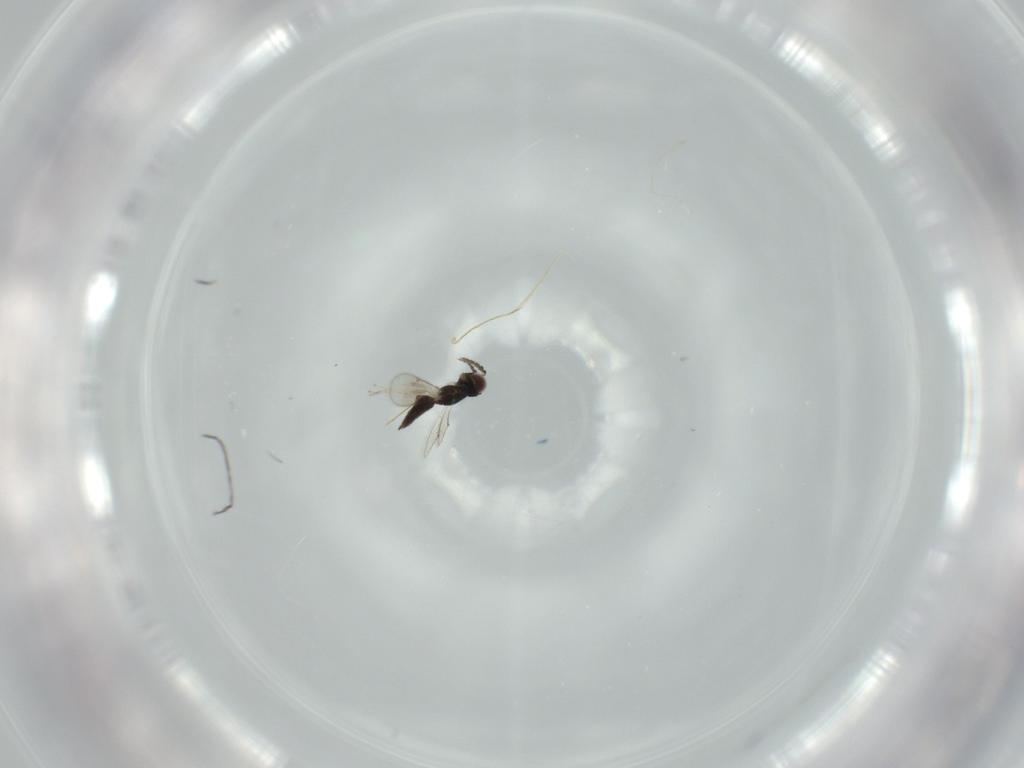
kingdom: Animalia
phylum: Arthropoda
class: Insecta
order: Hymenoptera
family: Eulophidae
